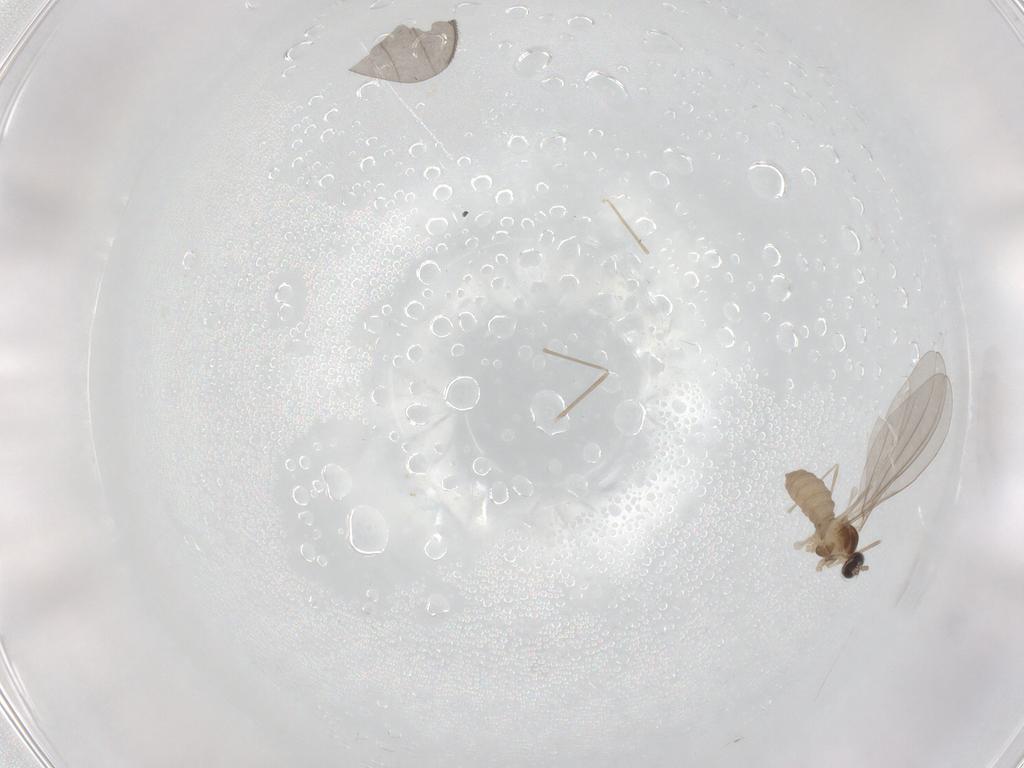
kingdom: Animalia
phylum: Arthropoda
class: Insecta
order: Diptera
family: Cecidomyiidae
